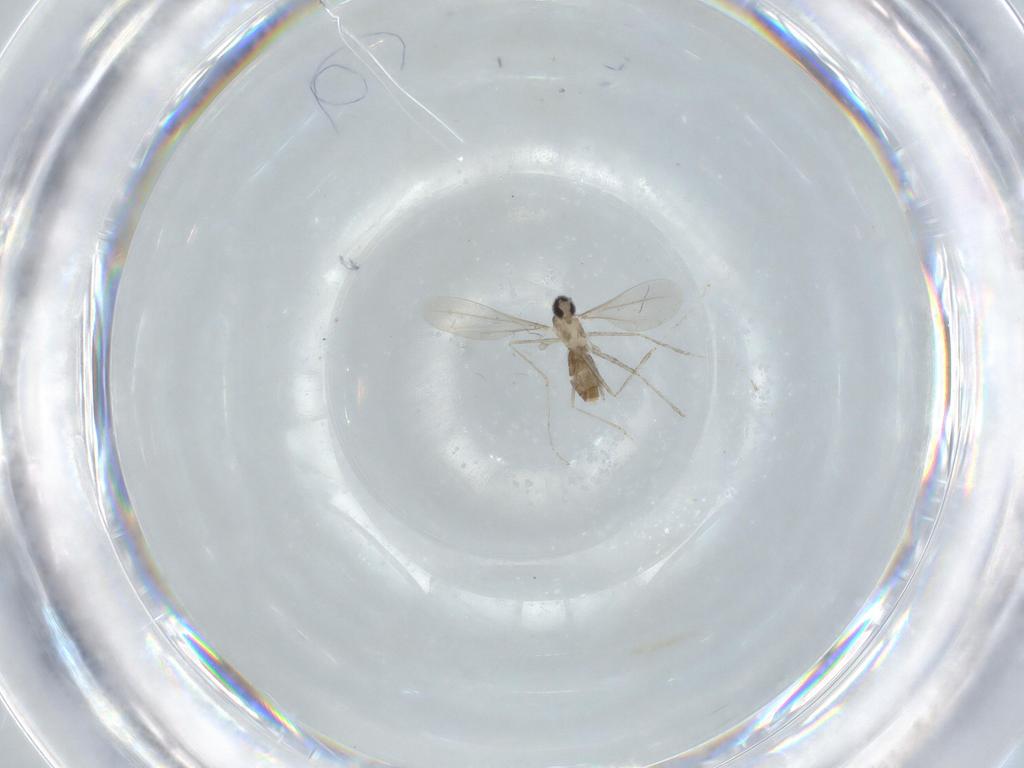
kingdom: Animalia
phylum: Arthropoda
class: Insecta
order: Diptera
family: Cecidomyiidae
